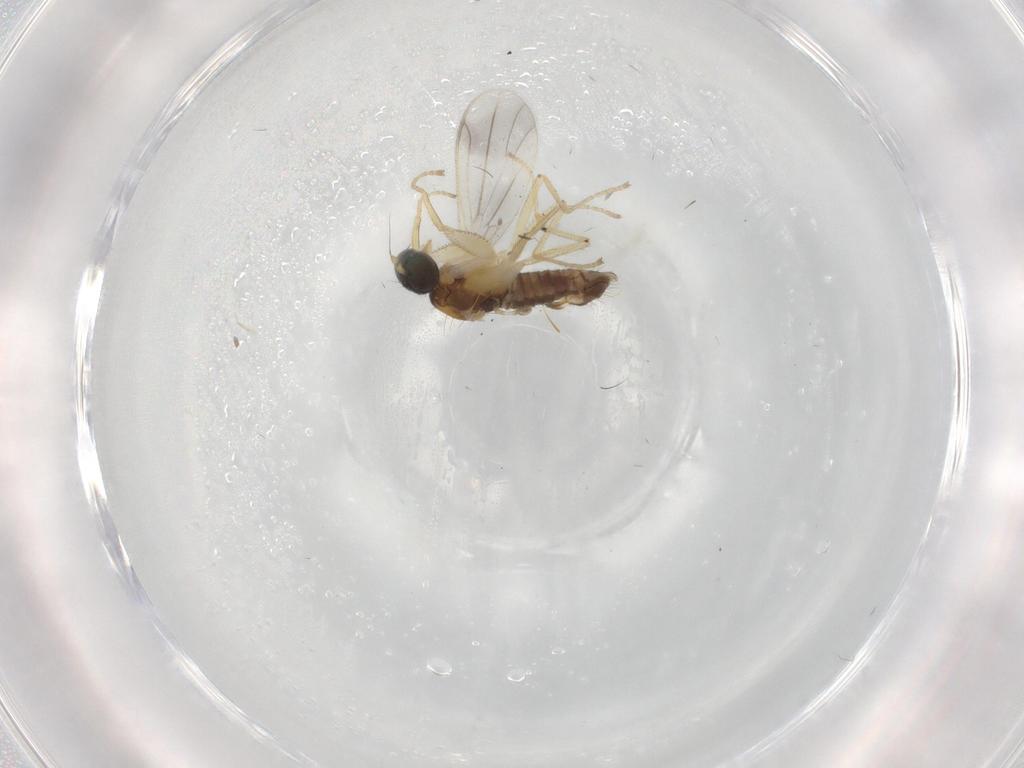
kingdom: Animalia
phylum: Arthropoda
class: Insecta
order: Diptera
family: Empididae
